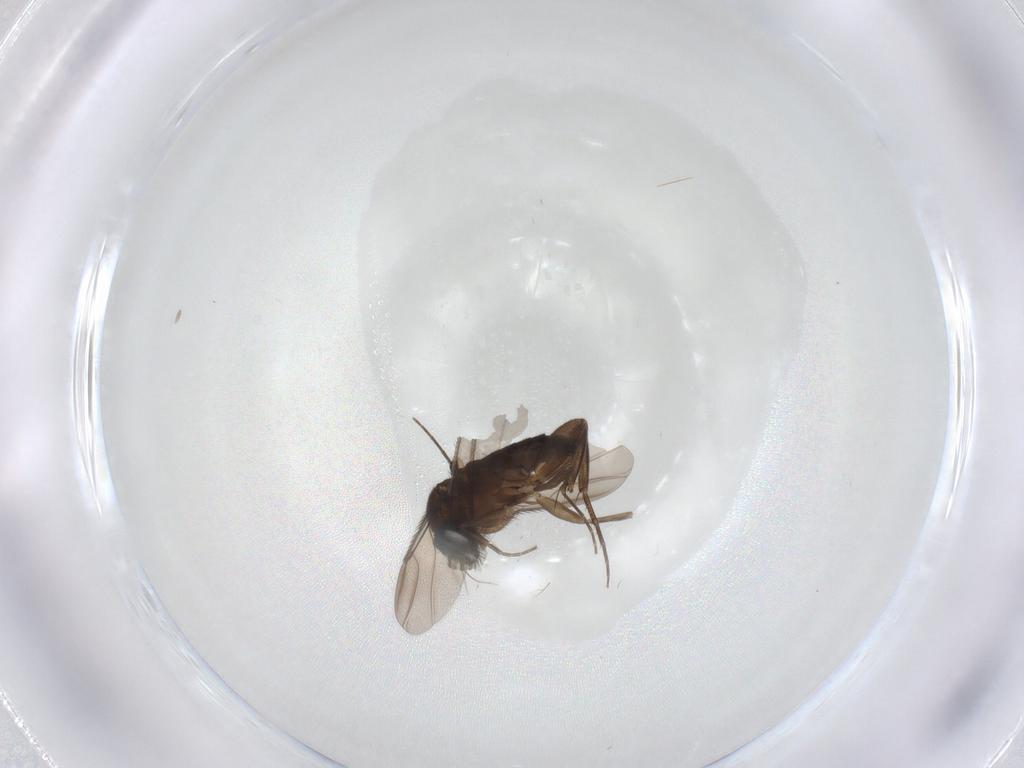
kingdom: Animalia
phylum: Arthropoda
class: Insecta
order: Diptera
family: Phoridae
